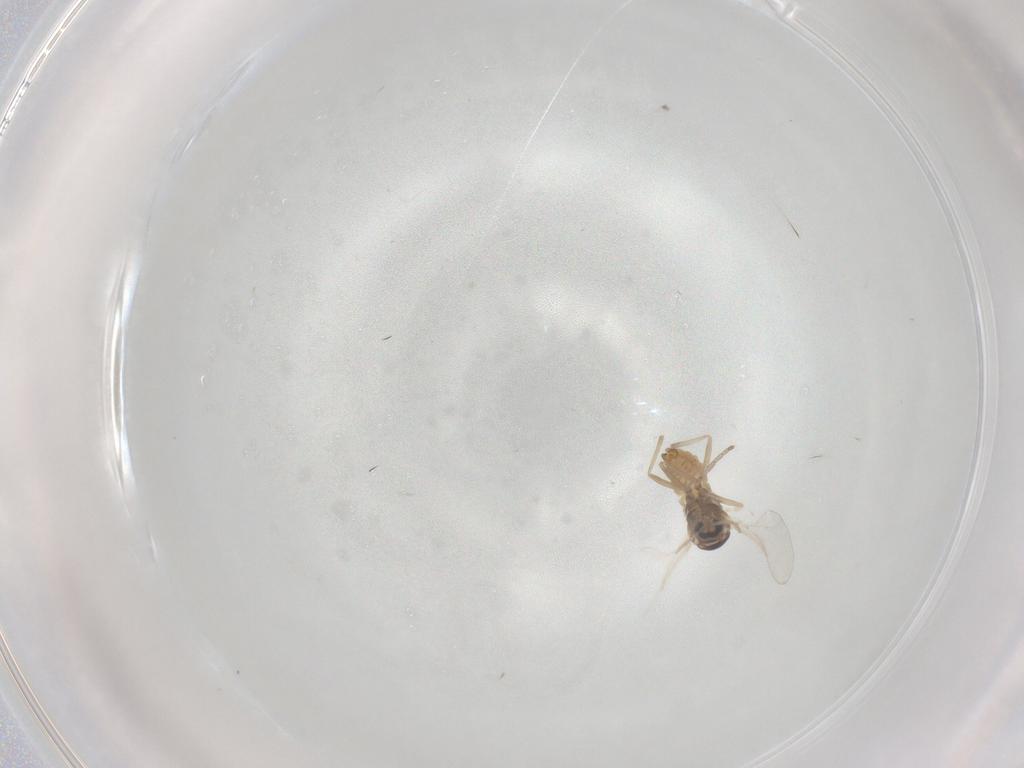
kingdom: Animalia
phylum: Arthropoda
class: Insecta
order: Diptera
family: Cecidomyiidae
